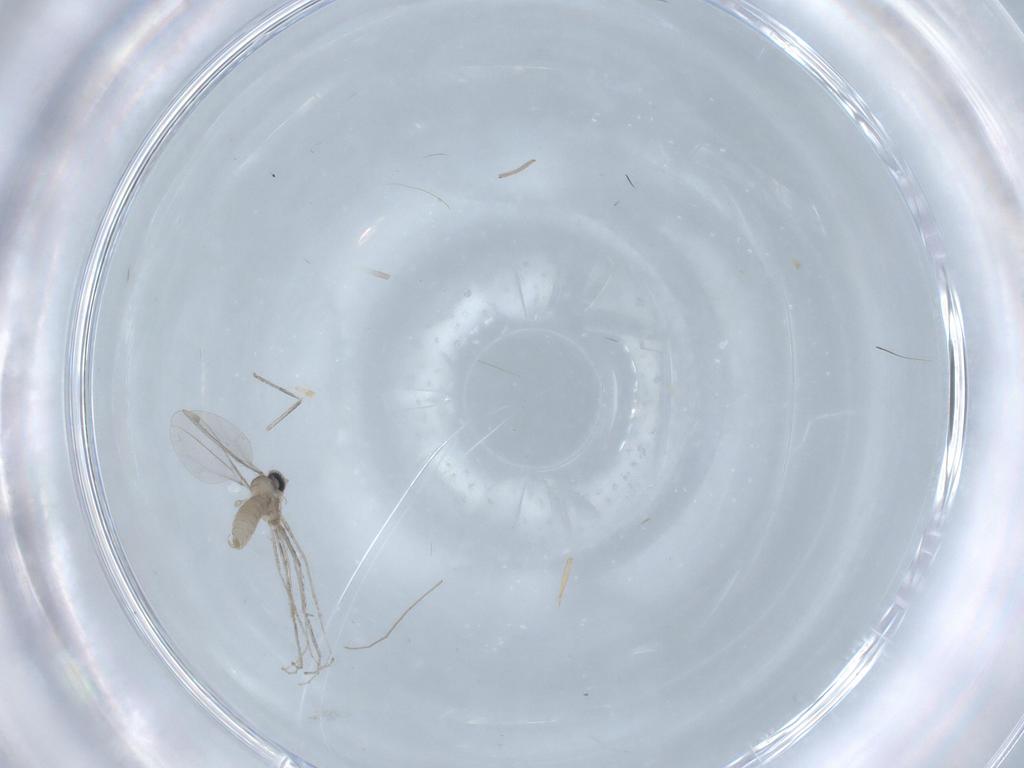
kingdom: Animalia
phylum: Arthropoda
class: Insecta
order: Diptera
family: Chironomidae
